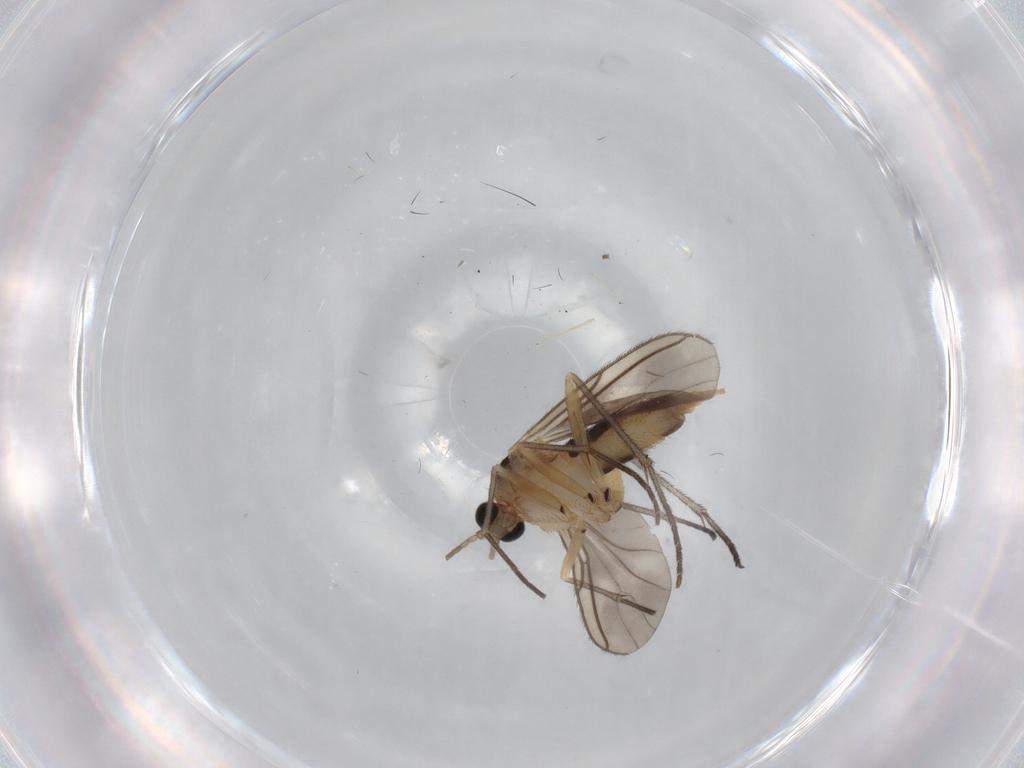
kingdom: Animalia
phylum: Arthropoda
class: Insecta
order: Diptera
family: Sciaridae
